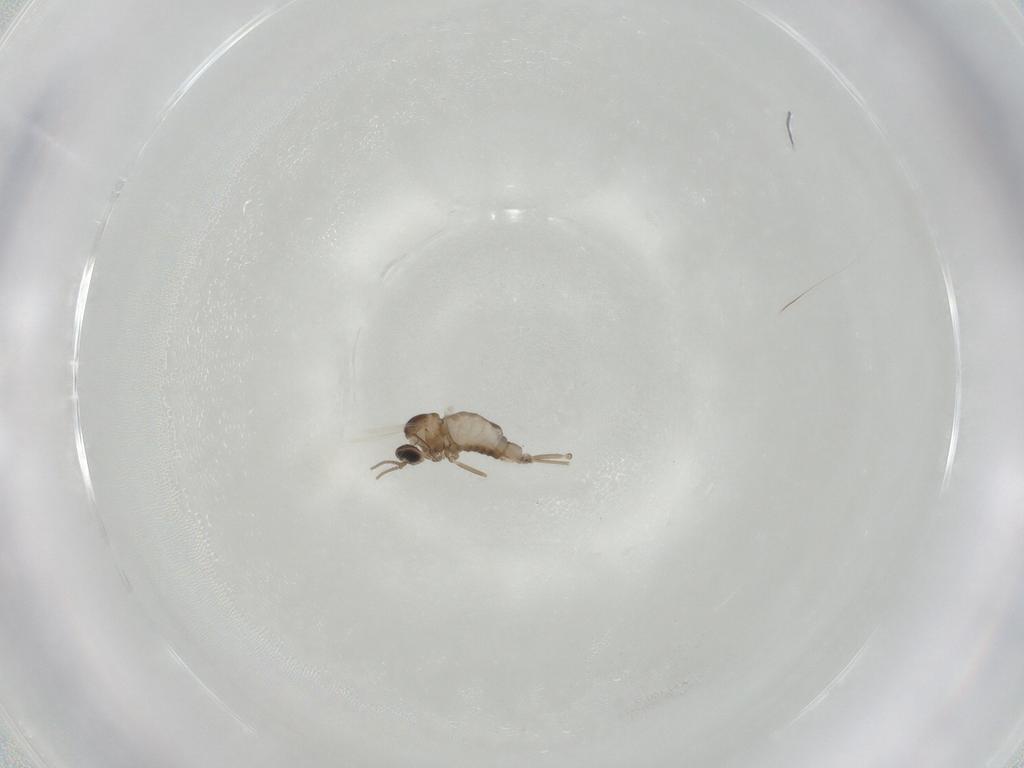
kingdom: Animalia
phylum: Arthropoda
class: Insecta
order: Diptera
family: Cecidomyiidae
